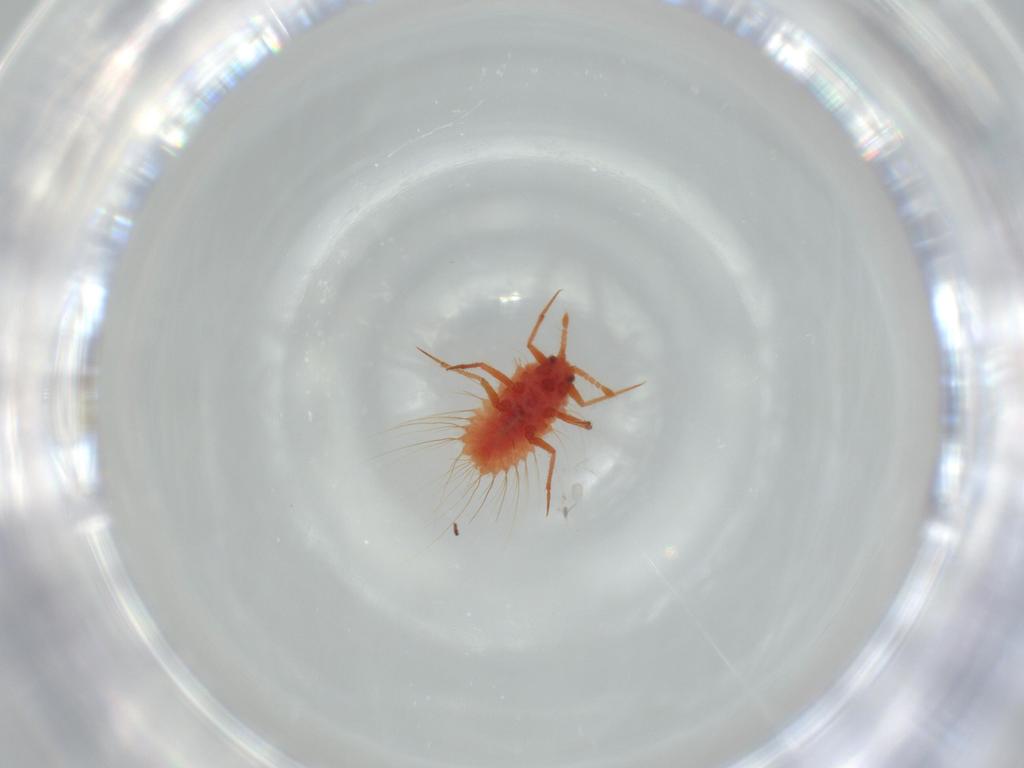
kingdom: Animalia
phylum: Arthropoda
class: Insecta
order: Hemiptera
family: Monophlebidae
